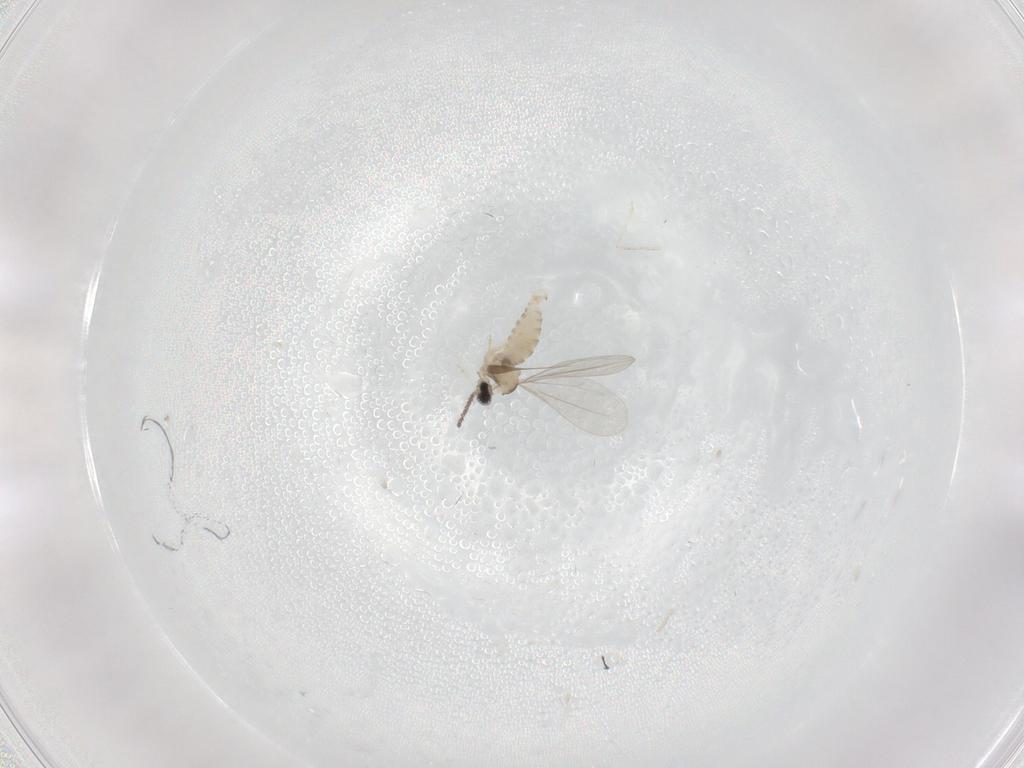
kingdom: Animalia
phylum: Arthropoda
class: Insecta
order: Diptera
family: Cecidomyiidae
